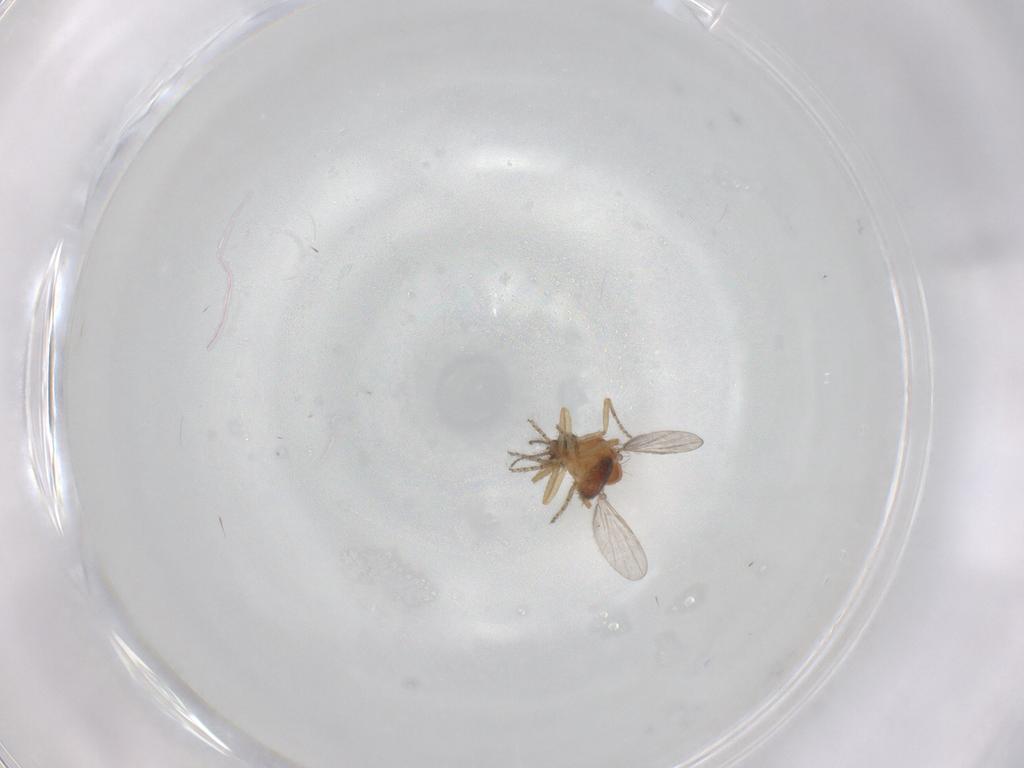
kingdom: Animalia
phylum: Arthropoda
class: Insecta
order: Diptera
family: Ceratopogonidae
